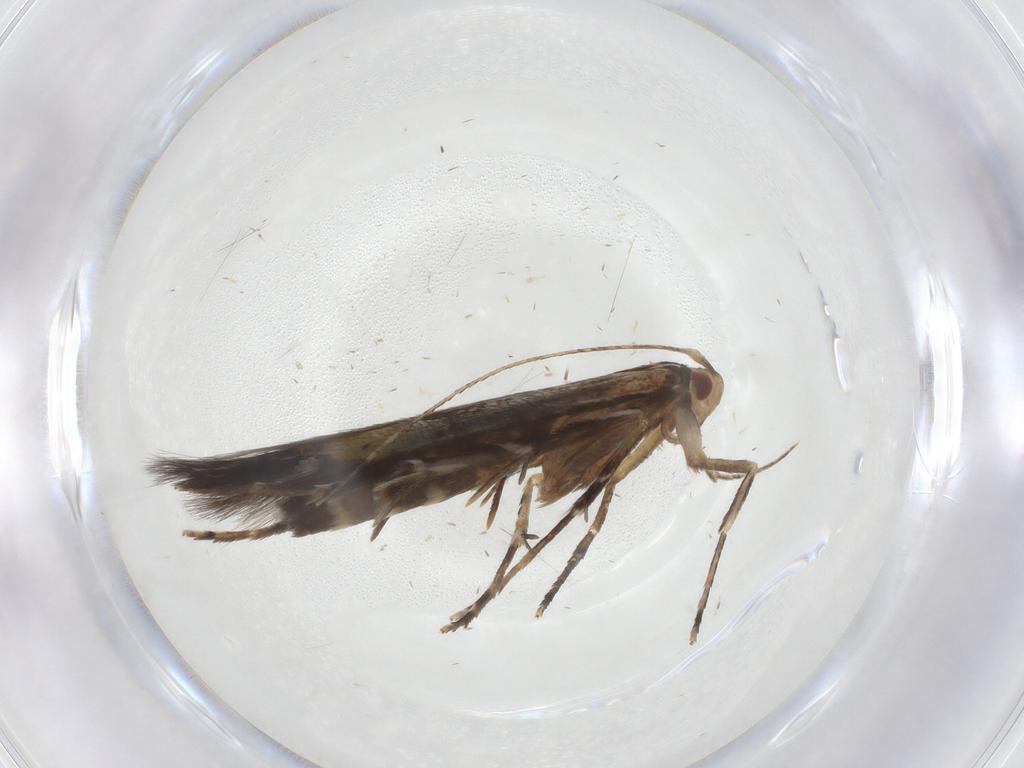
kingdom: Animalia
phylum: Arthropoda
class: Insecta
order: Lepidoptera
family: Cosmopterigidae
